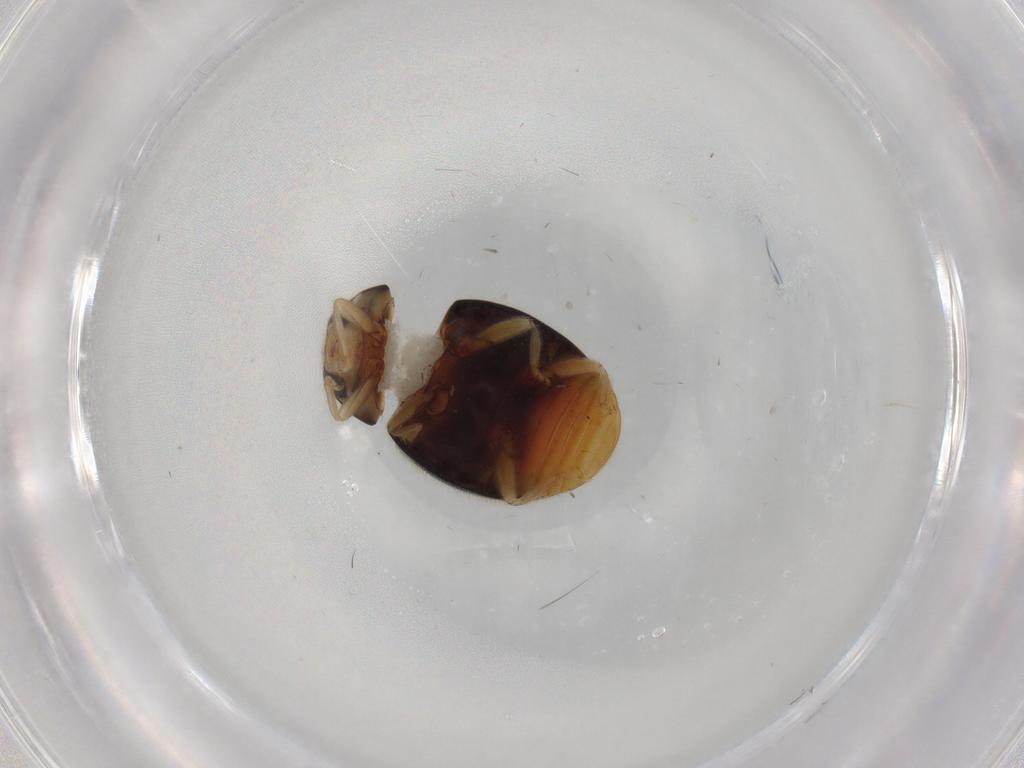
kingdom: Animalia
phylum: Arthropoda
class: Insecta
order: Coleoptera
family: Coccinellidae
